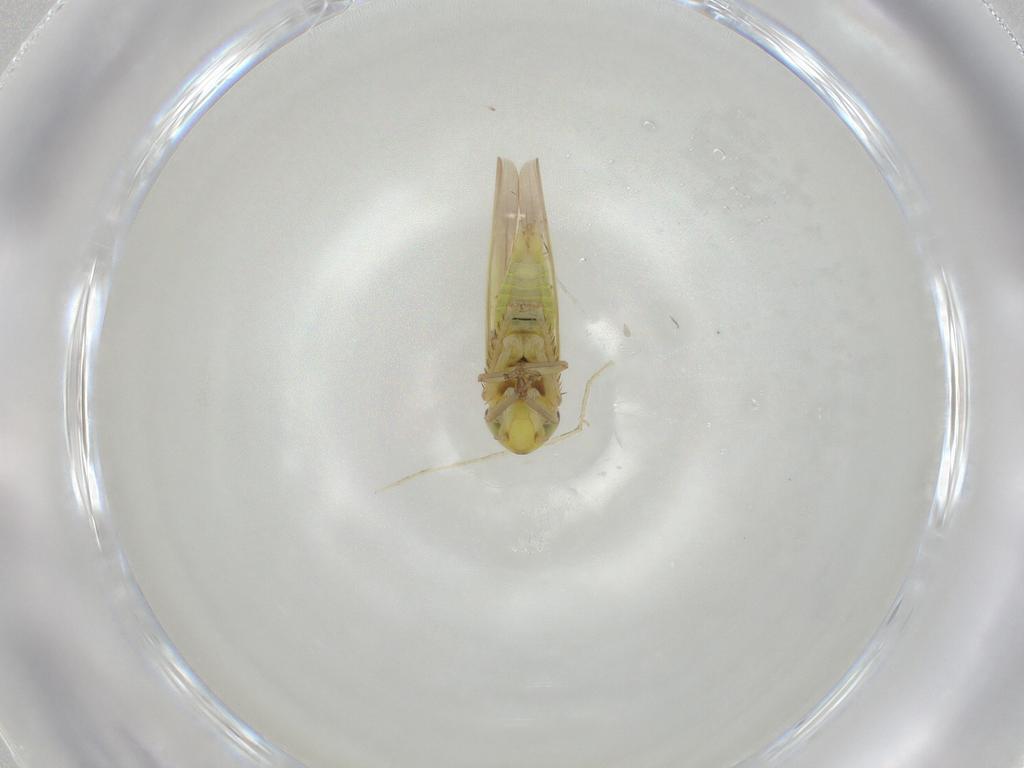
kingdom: Animalia
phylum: Arthropoda
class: Insecta
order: Hemiptera
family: Cicadellidae
